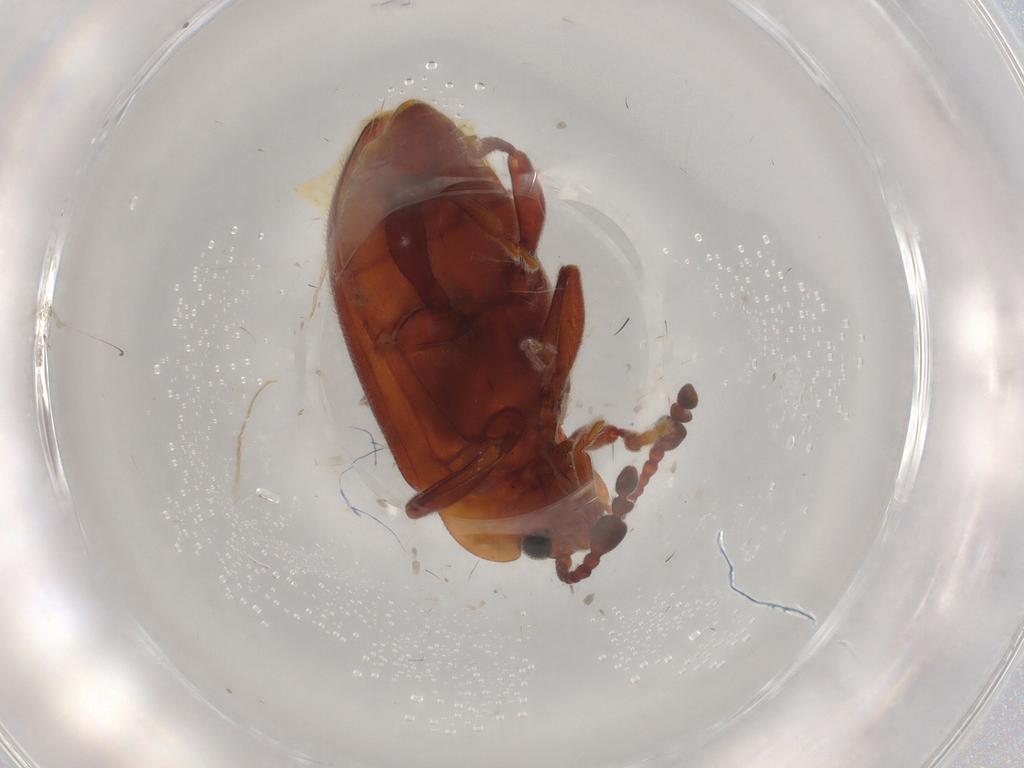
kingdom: Animalia
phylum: Arthropoda
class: Insecta
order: Coleoptera
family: Endomychidae
